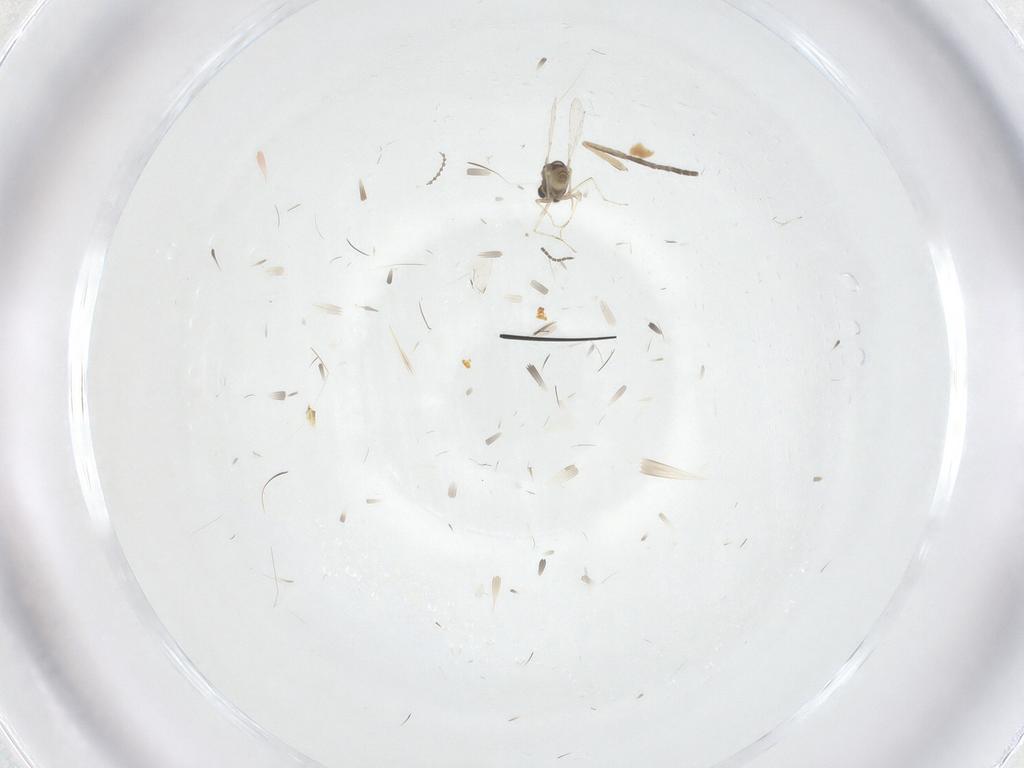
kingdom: Animalia
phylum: Arthropoda
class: Insecta
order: Diptera
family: Chironomidae
